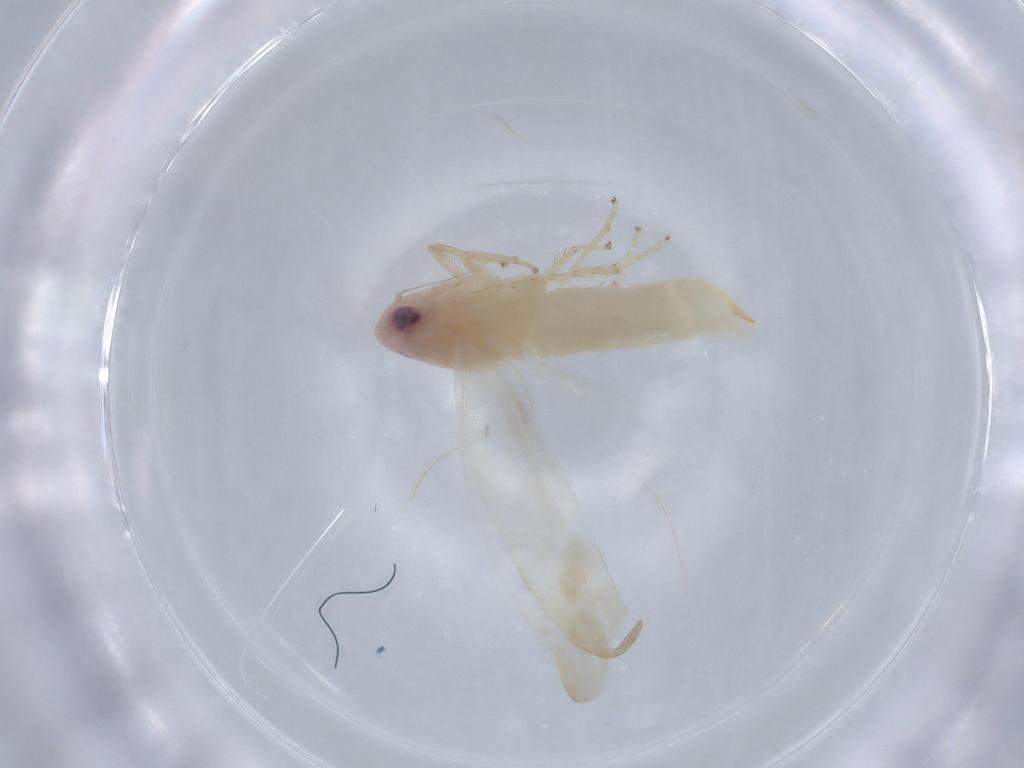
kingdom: Animalia
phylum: Arthropoda
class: Insecta
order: Hemiptera
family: Cicadellidae
